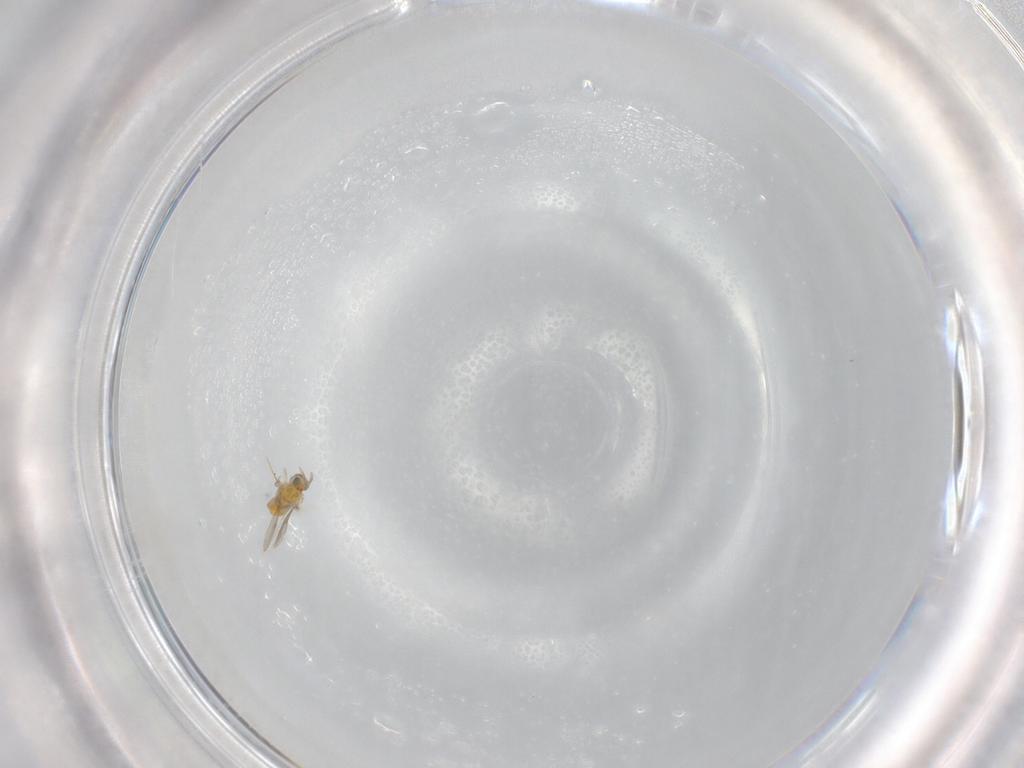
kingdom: Animalia
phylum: Arthropoda
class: Insecta
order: Hymenoptera
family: Aphelinidae
